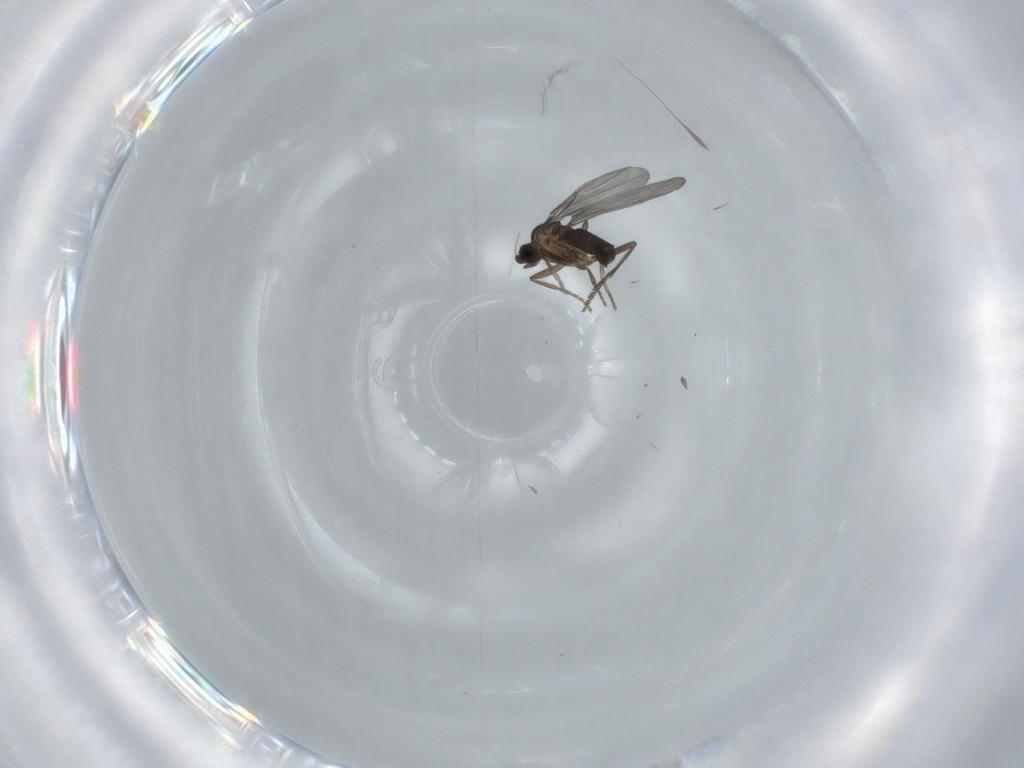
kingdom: Animalia
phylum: Arthropoda
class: Insecta
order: Diptera
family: Phoridae
